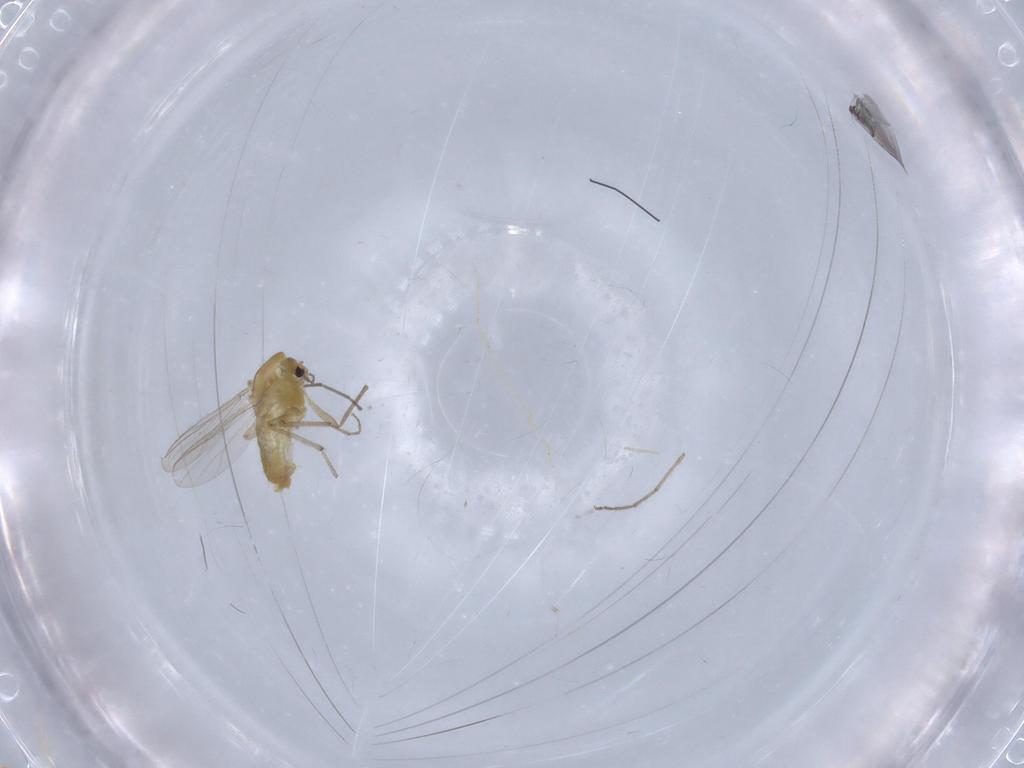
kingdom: Animalia
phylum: Arthropoda
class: Insecta
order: Diptera
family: Chironomidae
